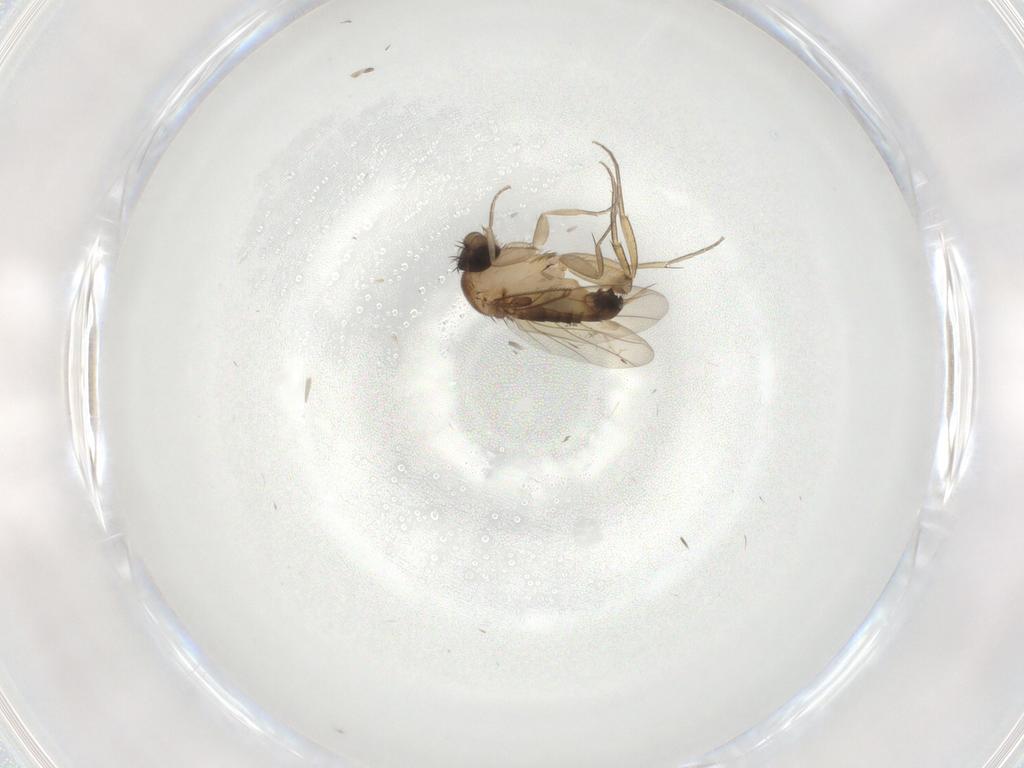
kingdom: Animalia
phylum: Arthropoda
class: Insecta
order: Diptera
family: Phoridae
